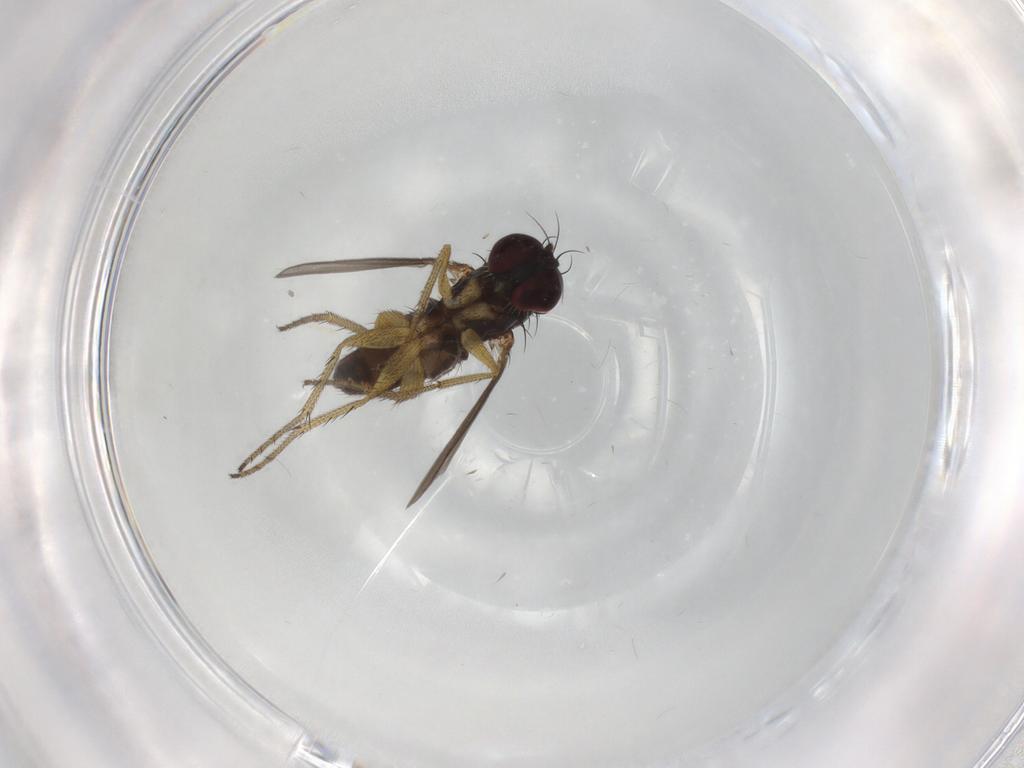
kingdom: Animalia
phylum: Arthropoda
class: Insecta
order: Diptera
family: Chironomidae
